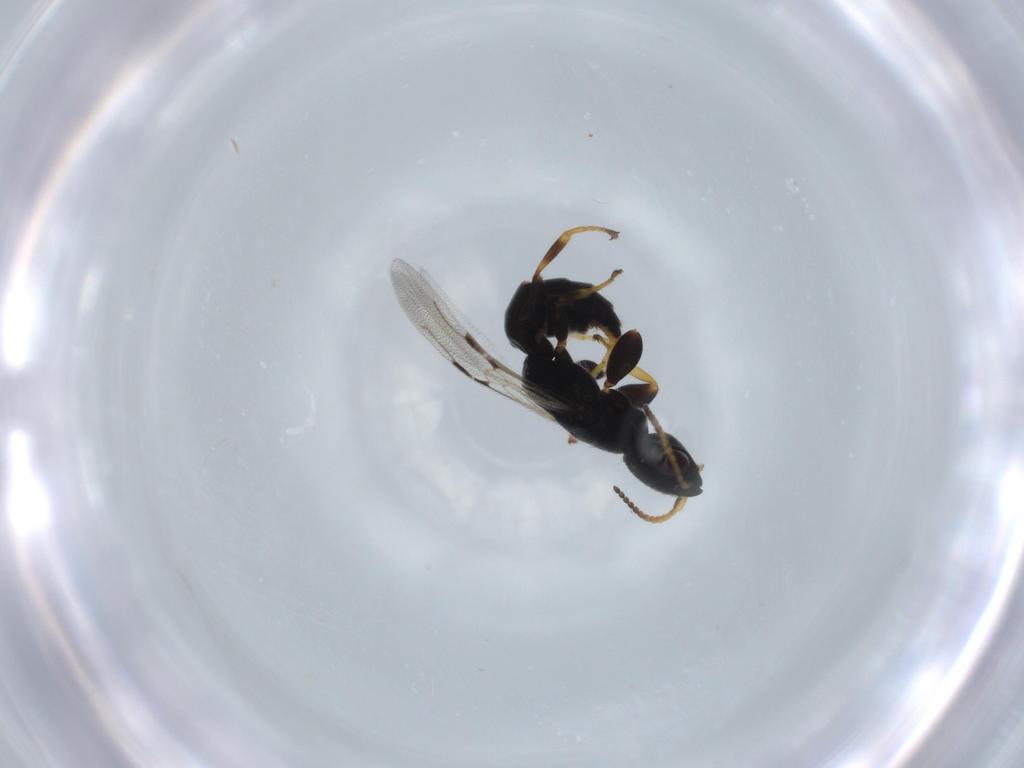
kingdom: Animalia
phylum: Arthropoda
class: Insecta
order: Hymenoptera
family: Bethylidae
